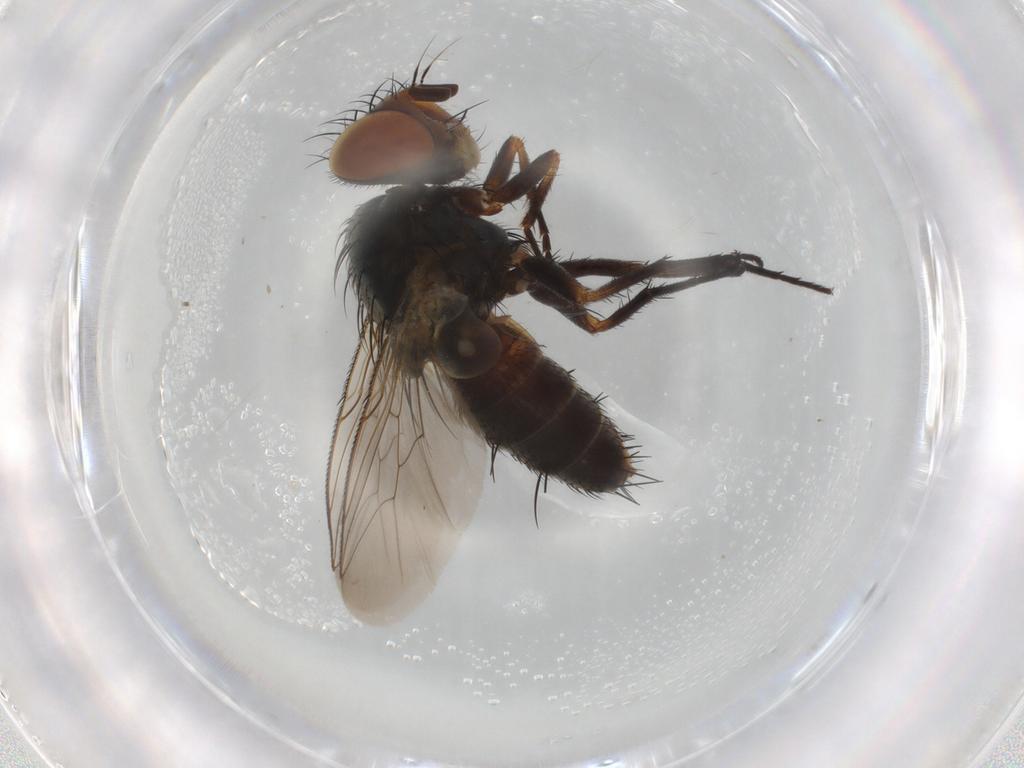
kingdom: Animalia
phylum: Arthropoda
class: Insecta
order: Diptera
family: Sarcophagidae
